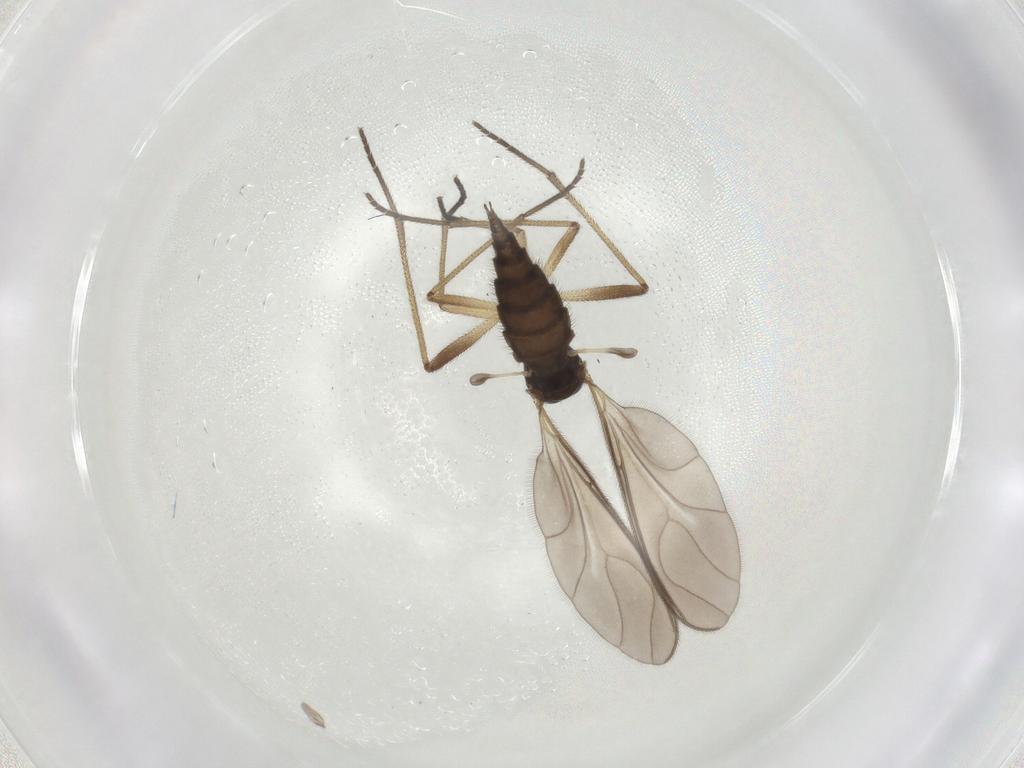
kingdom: Animalia
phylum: Arthropoda
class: Insecta
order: Diptera
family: Sciaridae
